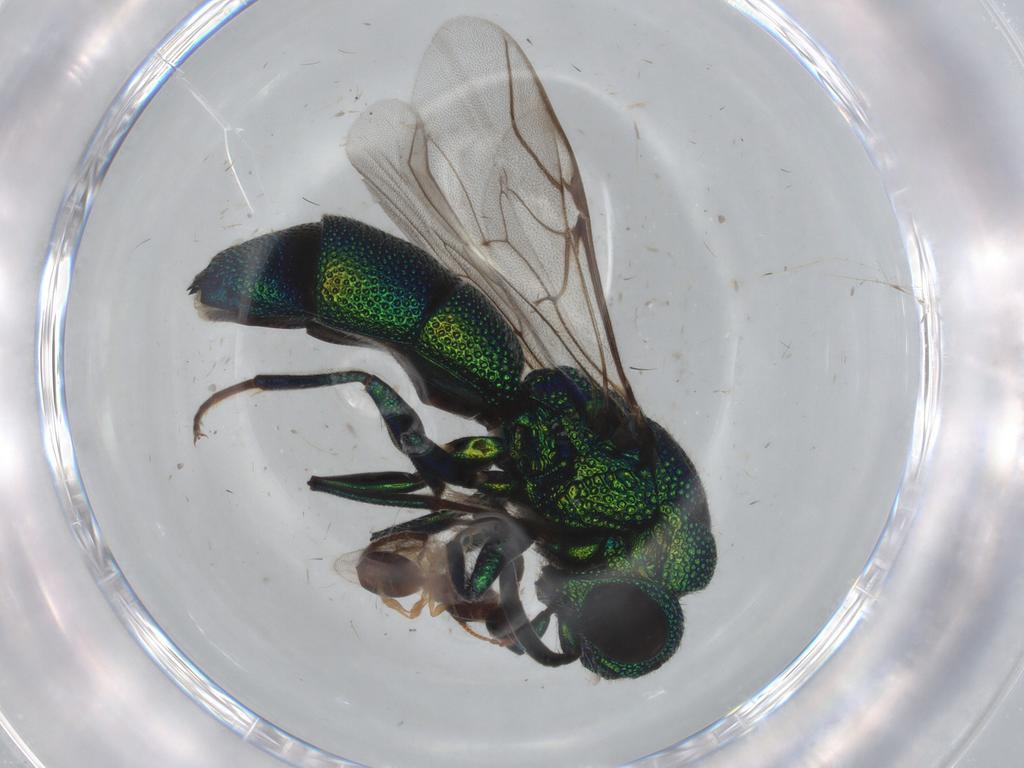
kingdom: Animalia
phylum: Arthropoda
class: Insecta
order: Hymenoptera
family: Chrysididae
